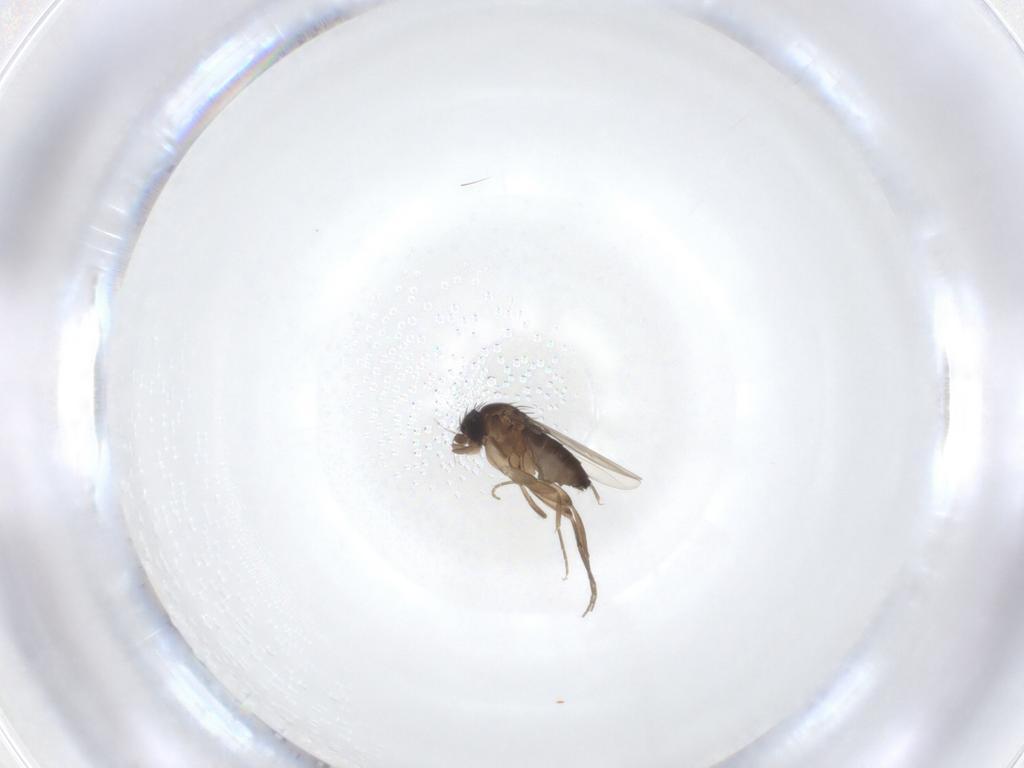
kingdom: Animalia
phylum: Arthropoda
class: Insecta
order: Diptera
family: Phoridae
